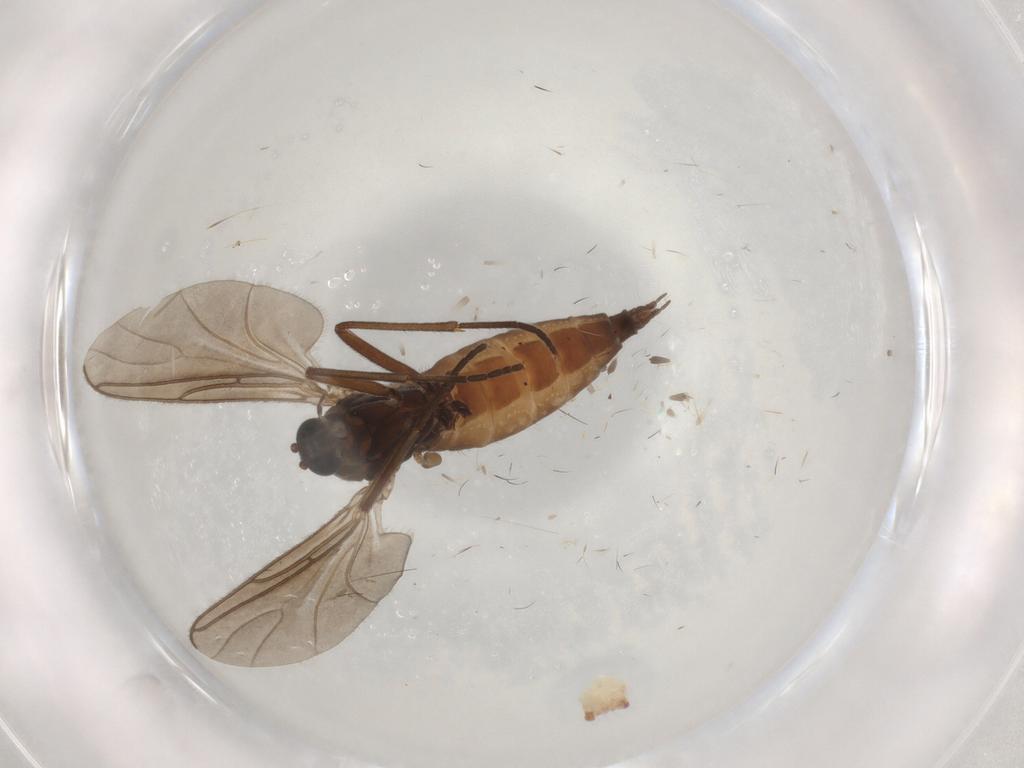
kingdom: Animalia
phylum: Arthropoda
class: Insecta
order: Diptera
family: Sciaridae
